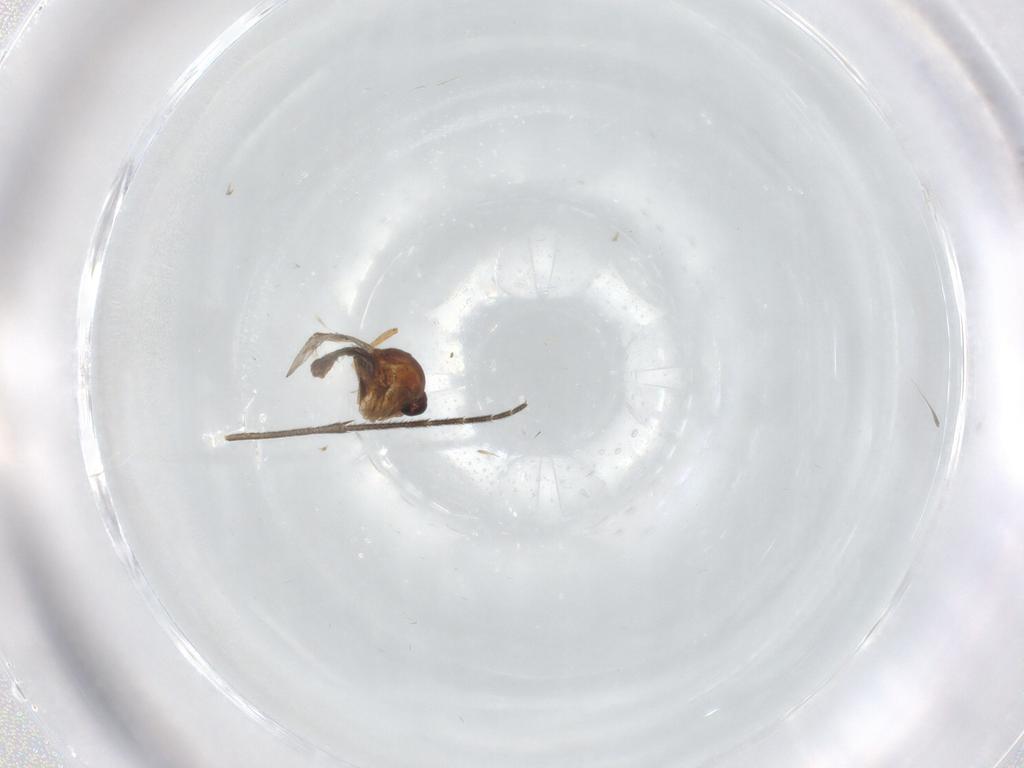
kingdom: Animalia
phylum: Arthropoda
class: Insecta
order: Diptera
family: Ceratopogonidae
